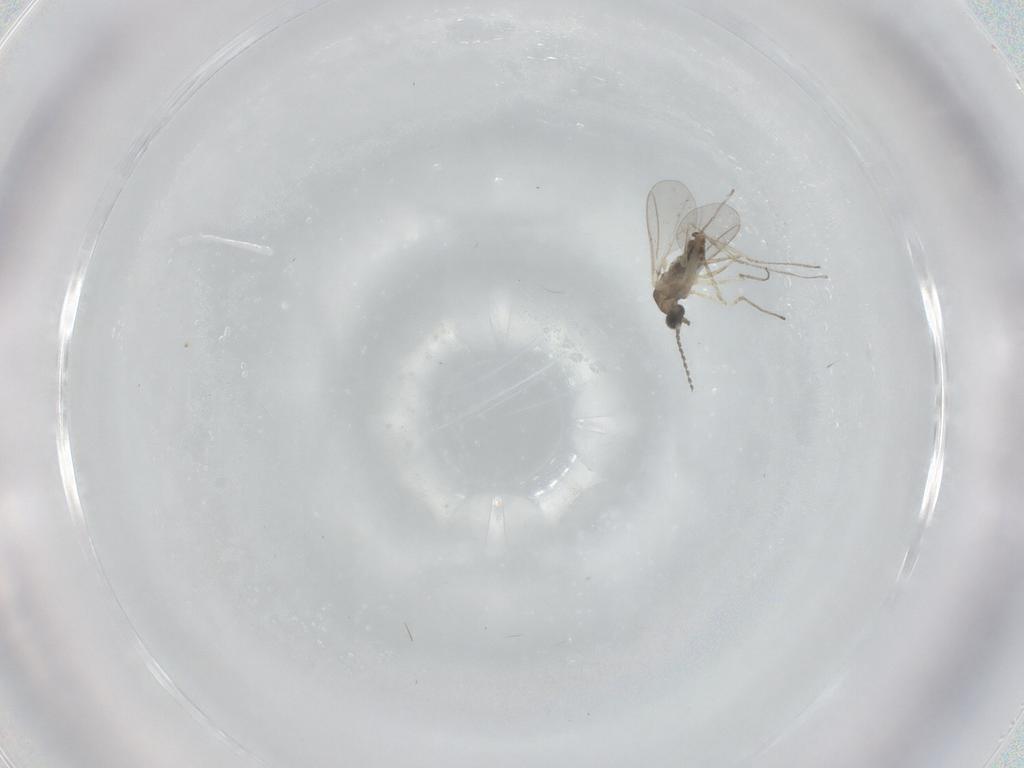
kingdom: Animalia
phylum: Arthropoda
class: Insecta
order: Diptera
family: Cecidomyiidae
